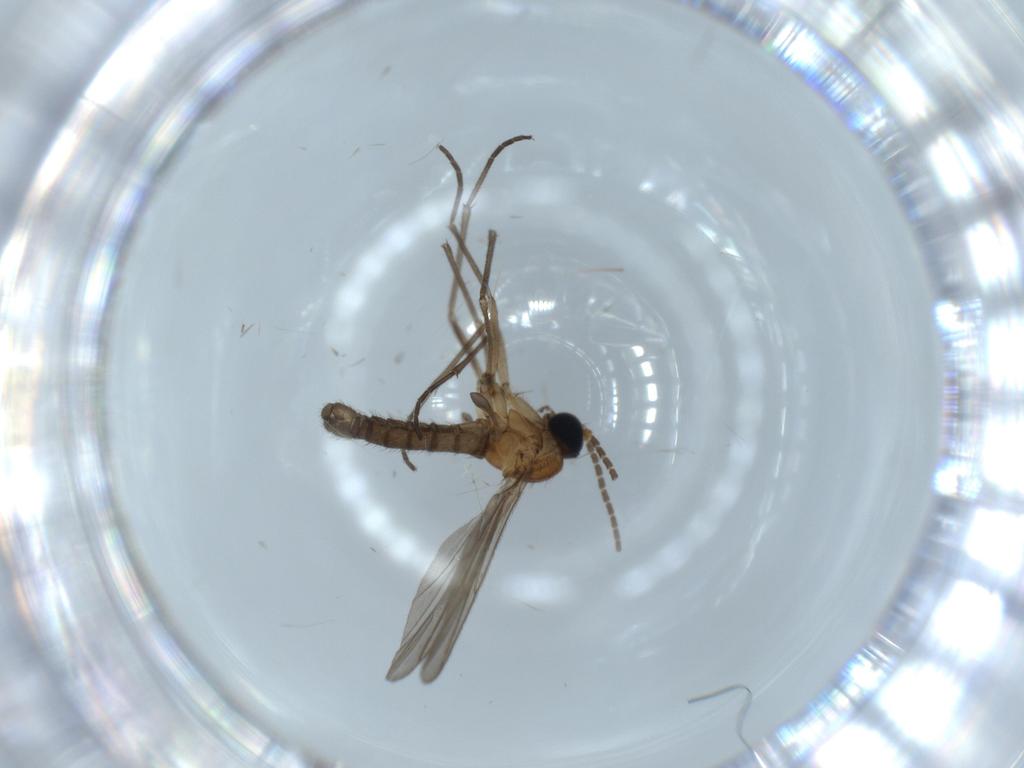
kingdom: Animalia
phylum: Arthropoda
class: Insecta
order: Diptera
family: Sciaridae
